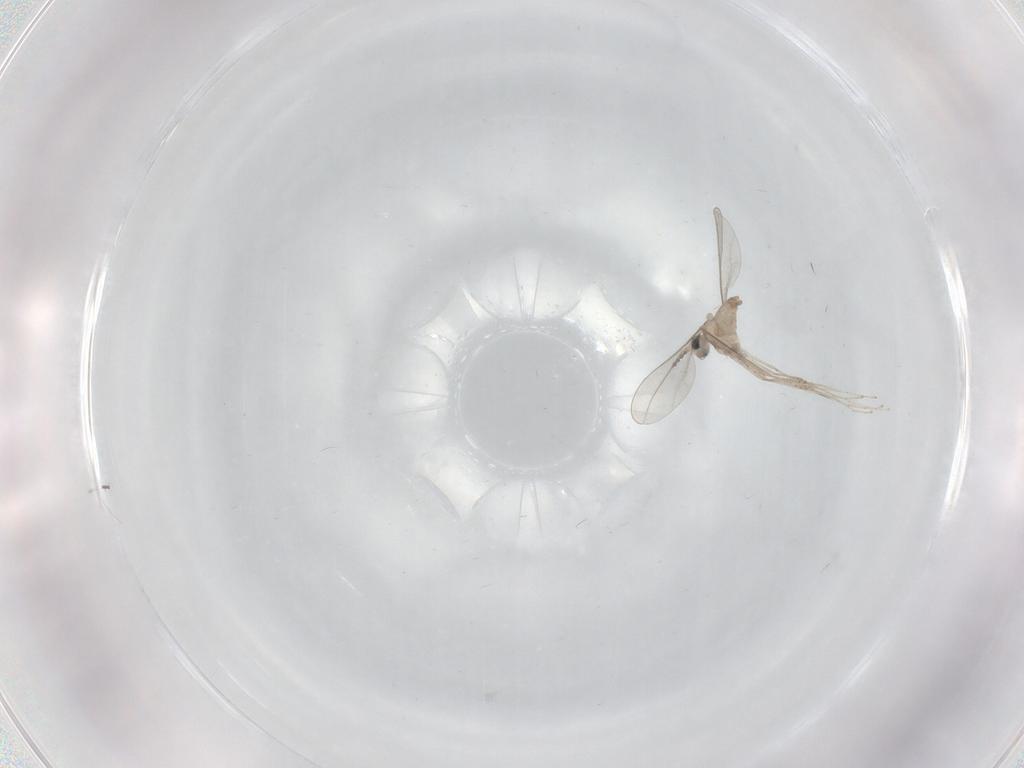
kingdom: Animalia
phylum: Arthropoda
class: Insecta
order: Diptera
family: Cecidomyiidae
